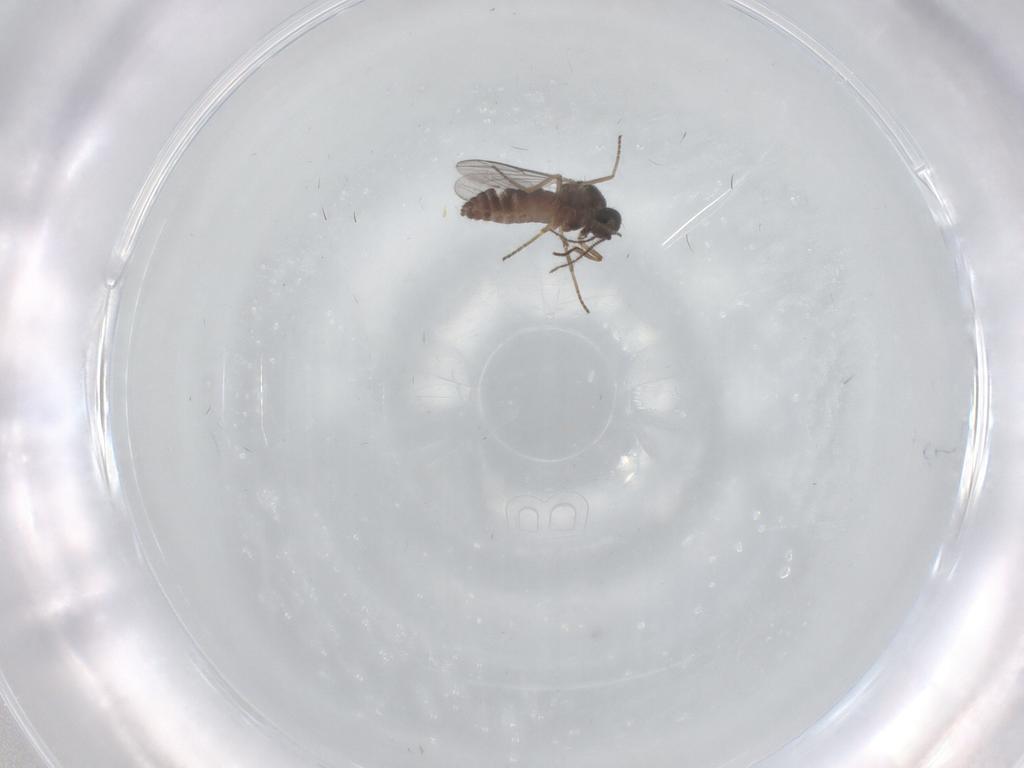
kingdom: Animalia
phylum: Arthropoda
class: Insecta
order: Diptera
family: Ceratopogonidae
